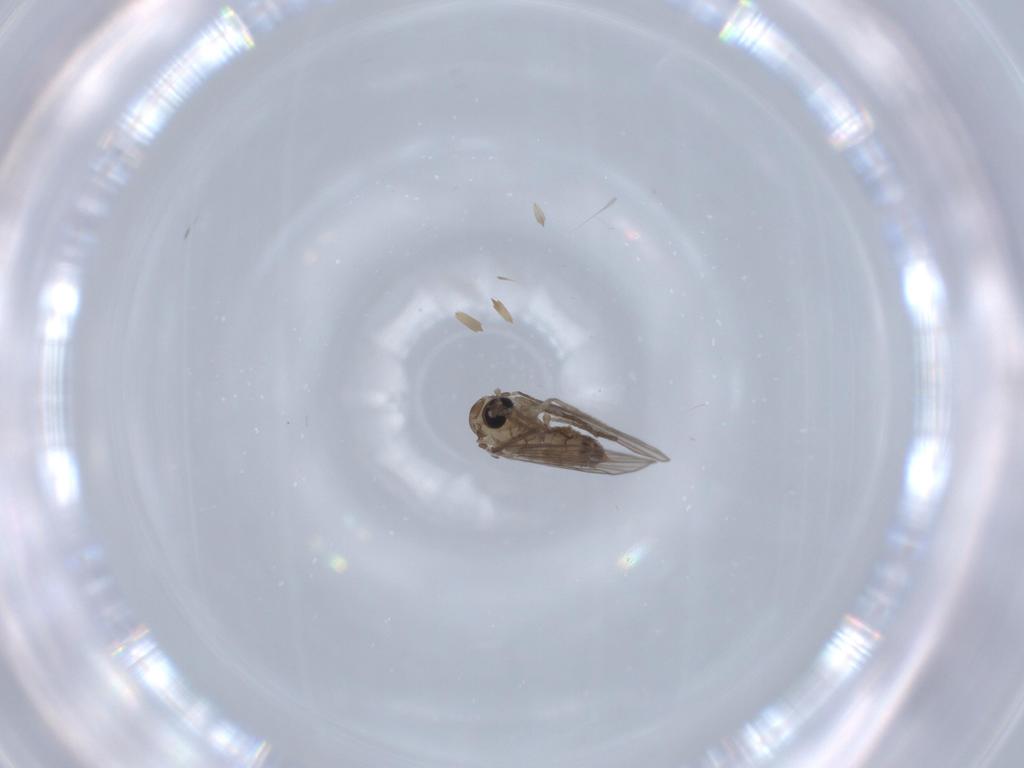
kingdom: Animalia
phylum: Arthropoda
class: Insecta
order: Diptera
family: Psychodidae
